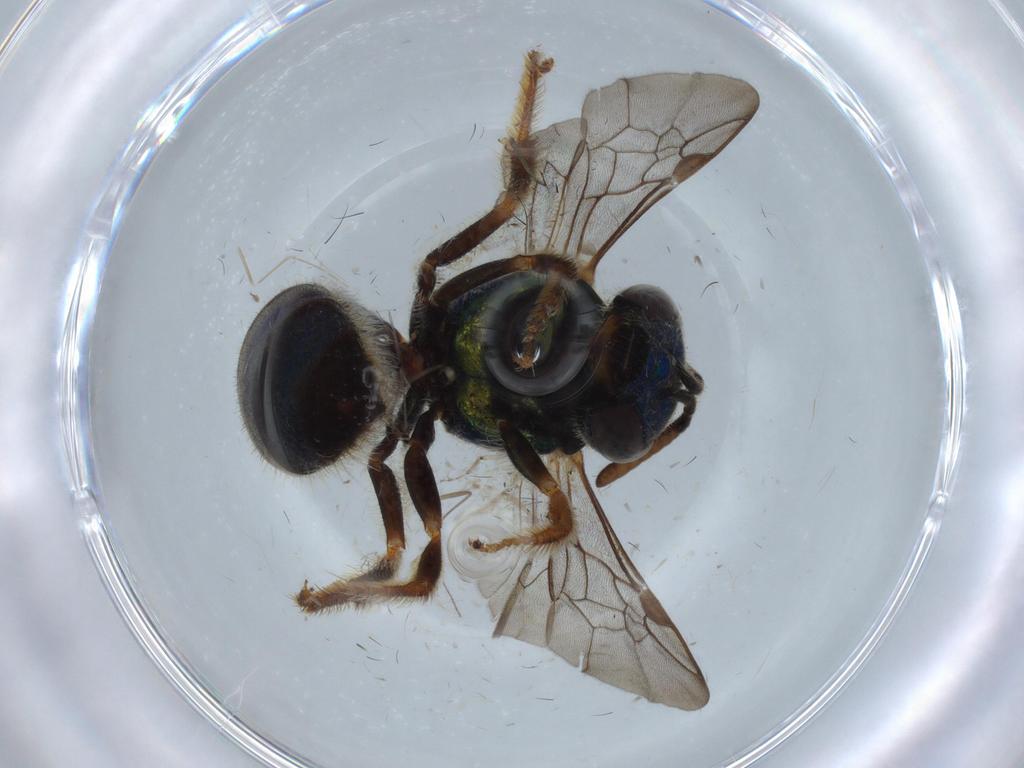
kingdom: Animalia
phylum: Arthropoda
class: Insecta
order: Hymenoptera
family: Halictidae
